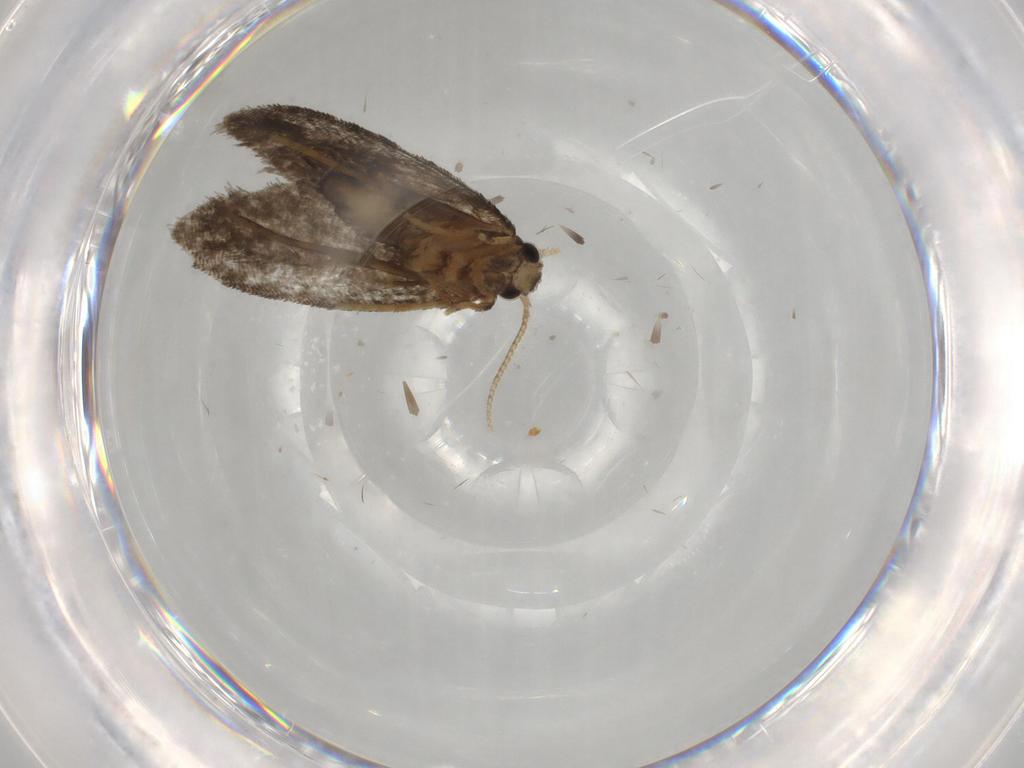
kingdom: Animalia
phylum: Arthropoda
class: Insecta
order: Lepidoptera
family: Psychidae
